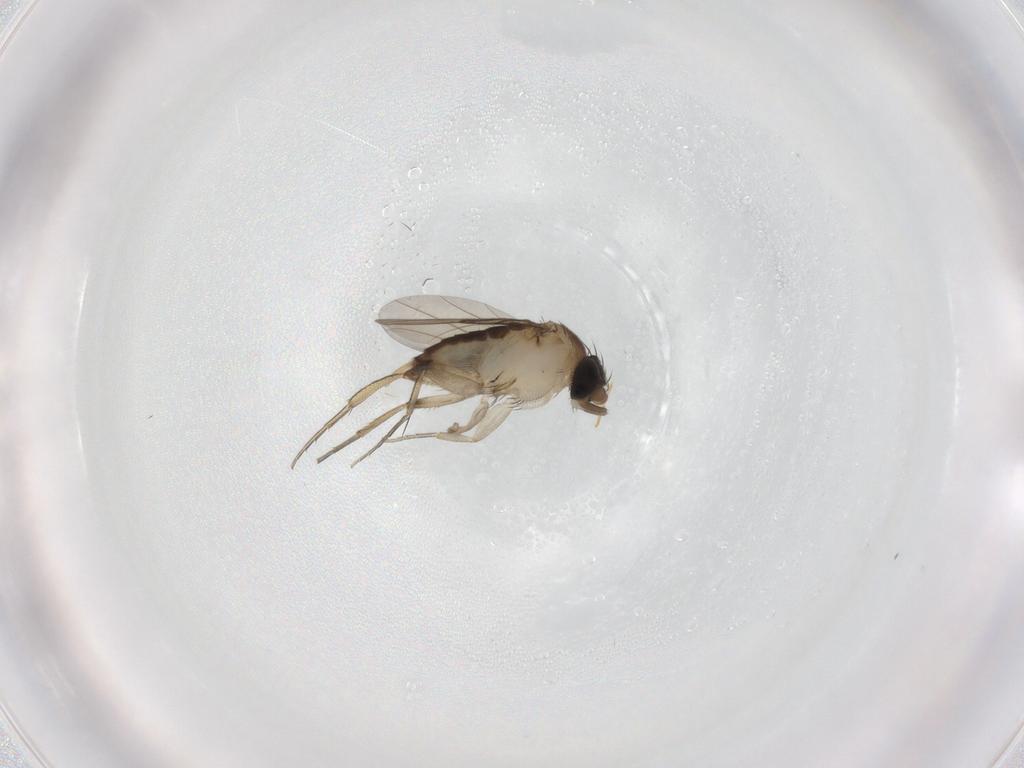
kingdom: Animalia
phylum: Arthropoda
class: Insecta
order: Diptera
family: Phoridae
